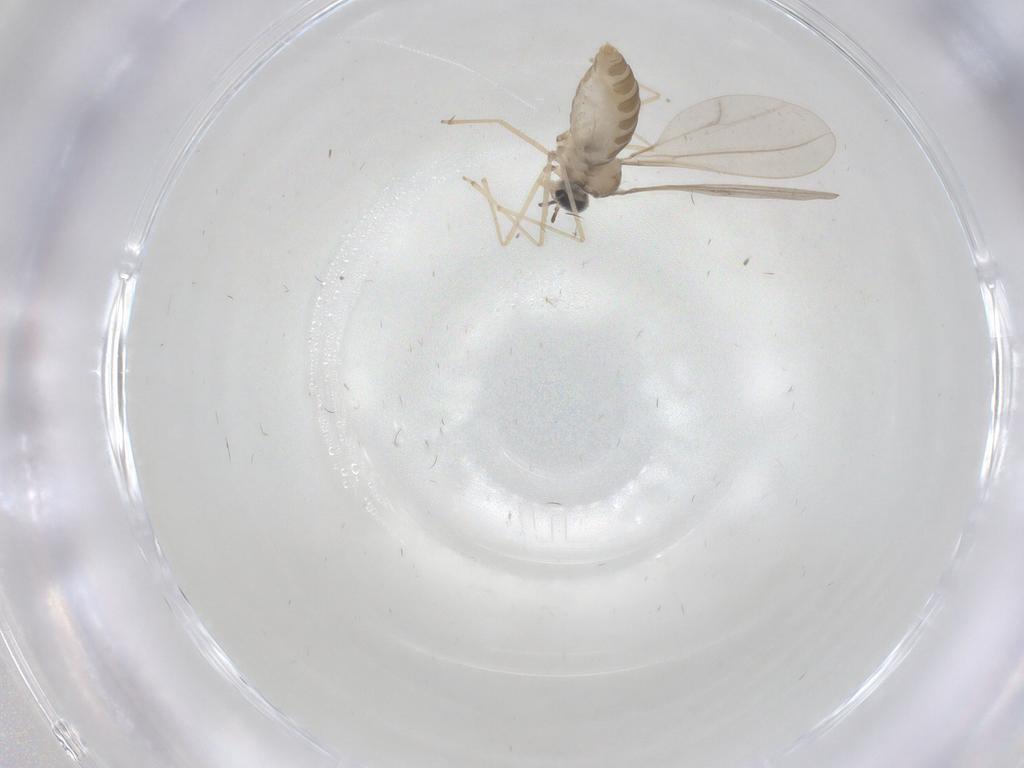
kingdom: Animalia
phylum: Arthropoda
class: Insecta
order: Diptera
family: Cecidomyiidae
